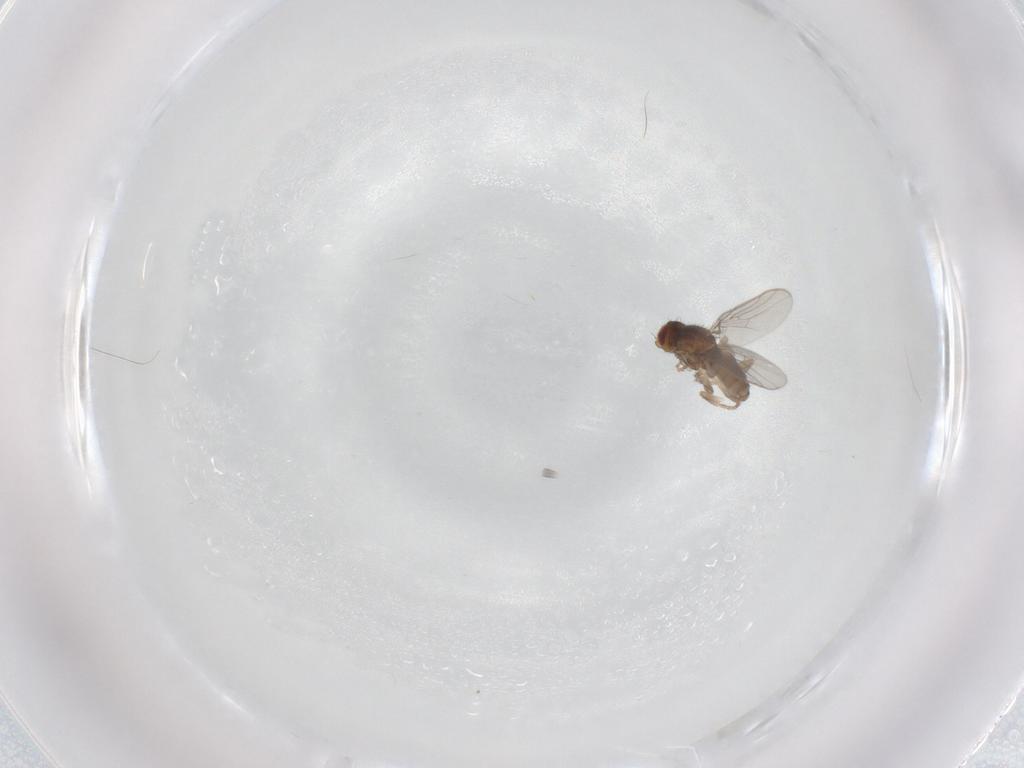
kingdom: Animalia
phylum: Arthropoda
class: Insecta
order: Diptera
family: Chloropidae
